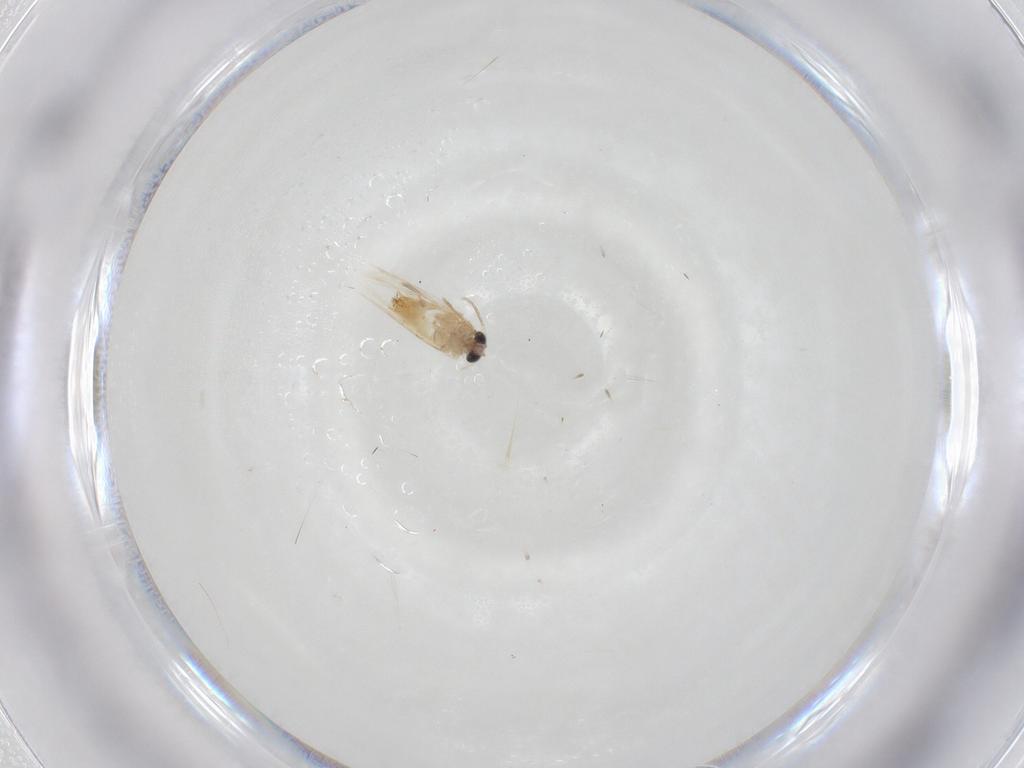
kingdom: Animalia
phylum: Arthropoda
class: Insecta
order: Lepidoptera
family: Crambidae
